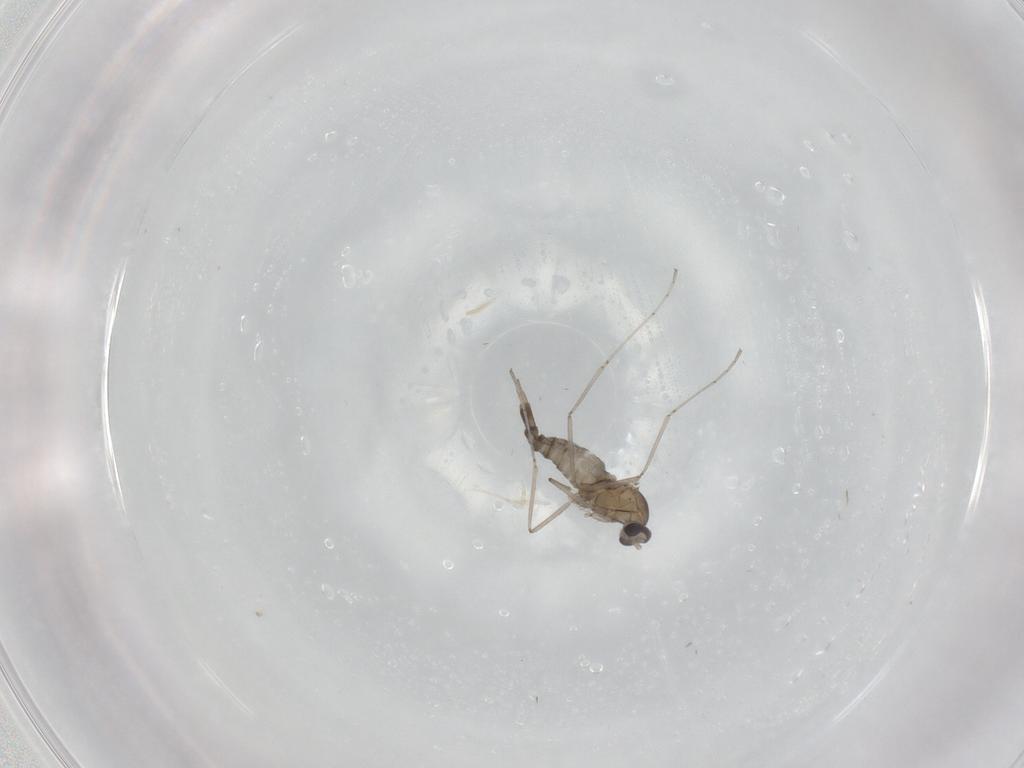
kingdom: Animalia
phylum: Arthropoda
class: Insecta
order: Diptera
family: Cecidomyiidae
